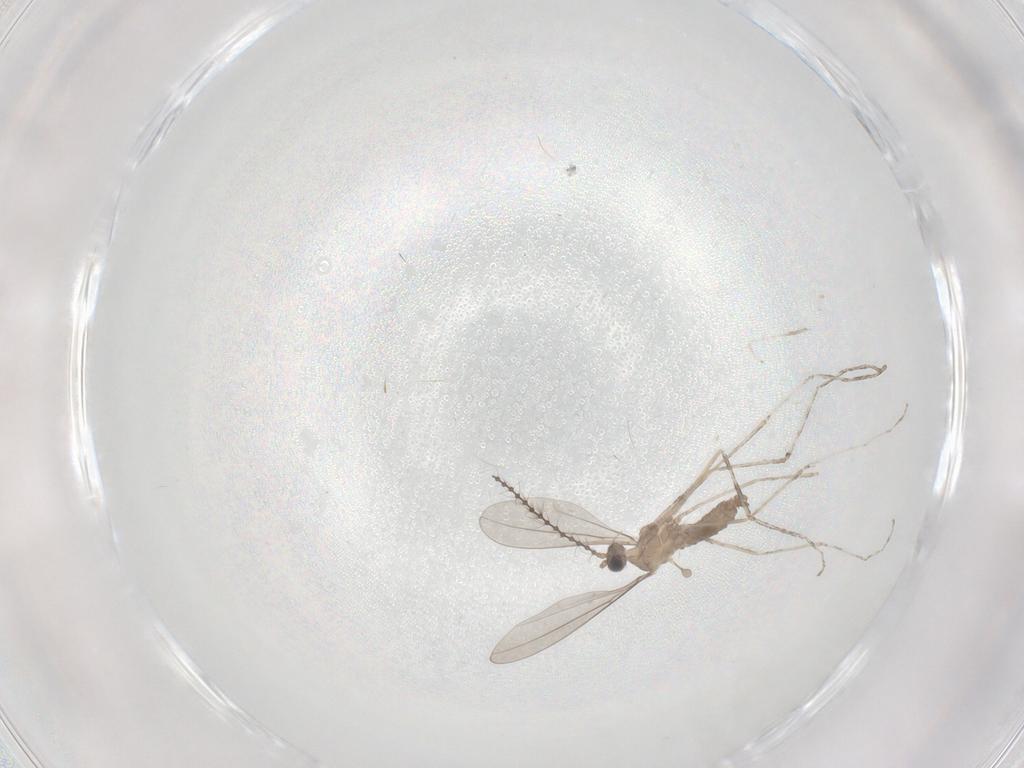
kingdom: Animalia
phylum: Arthropoda
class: Insecta
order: Diptera
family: Cecidomyiidae
